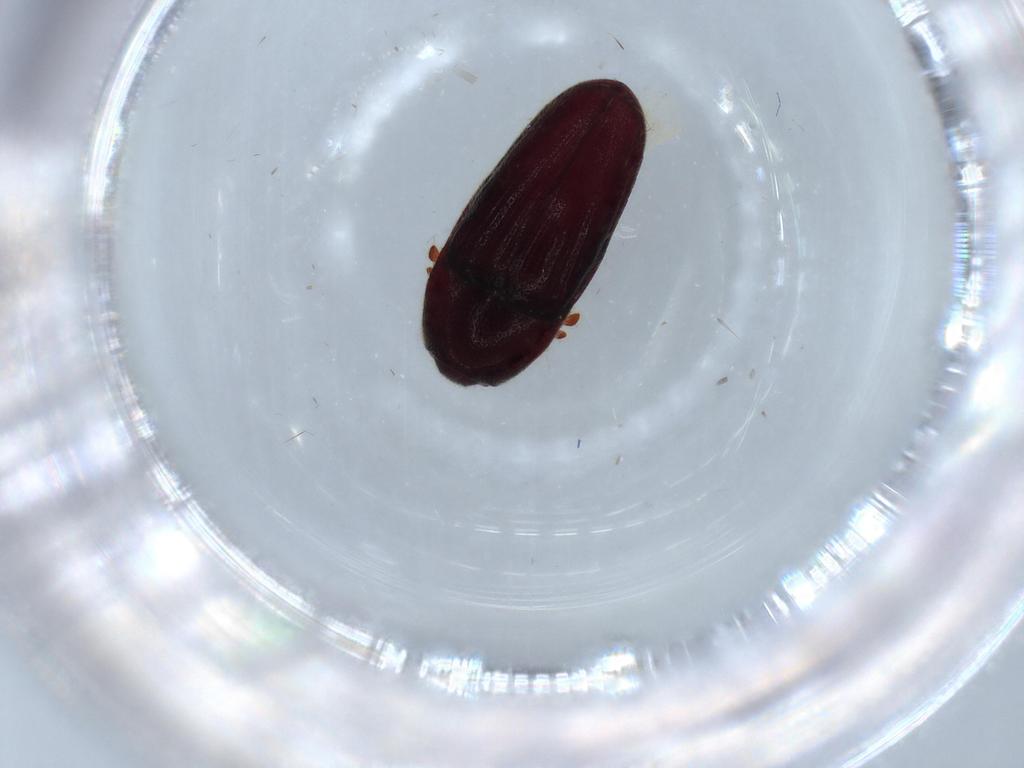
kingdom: Animalia
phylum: Arthropoda
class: Insecta
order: Coleoptera
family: Throscidae
